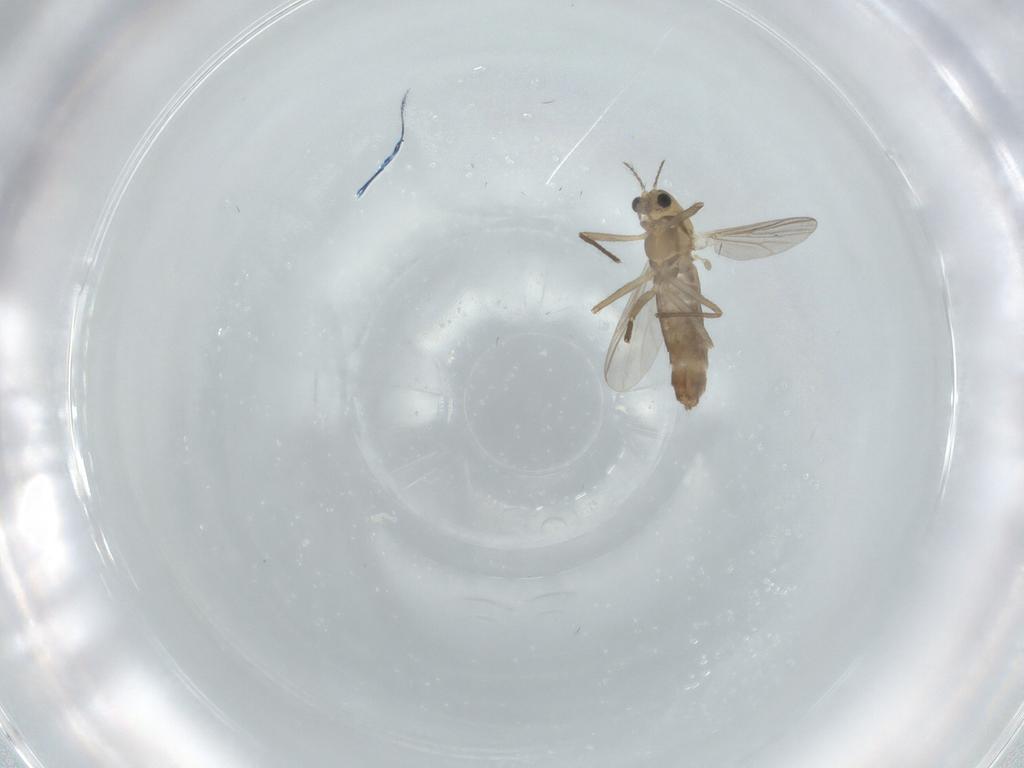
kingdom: Animalia
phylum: Arthropoda
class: Insecta
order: Diptera
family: Chironomidae
